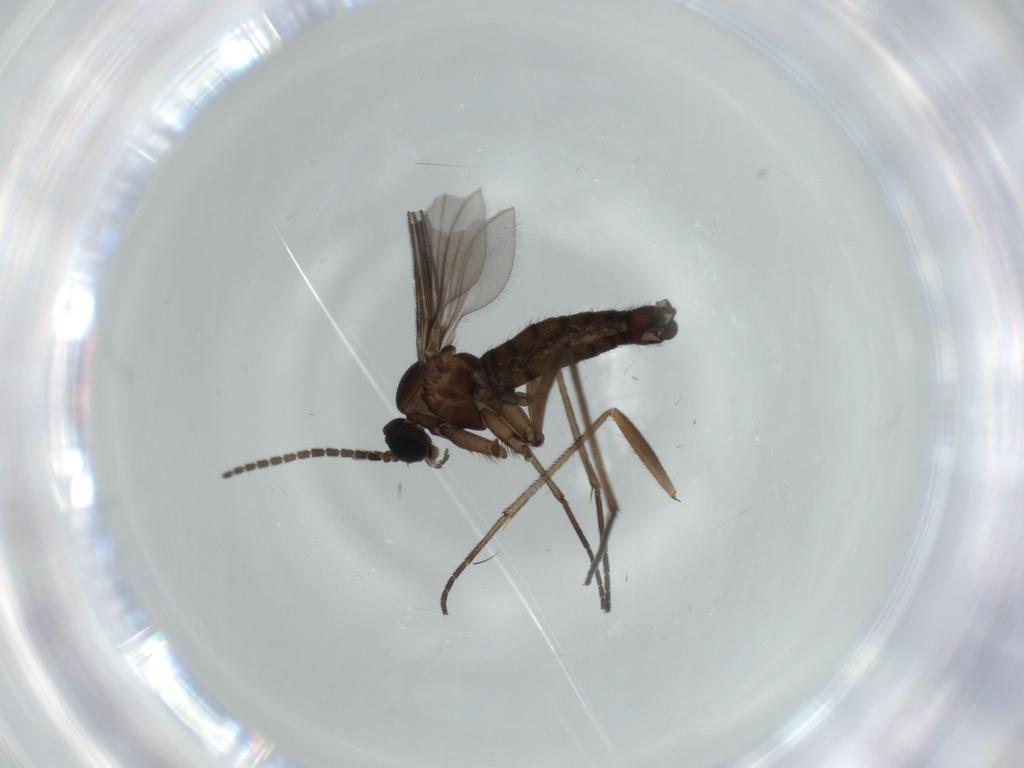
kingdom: Animalia
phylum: Arthropoda
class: Insecta
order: Diptera
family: Sciaridae
